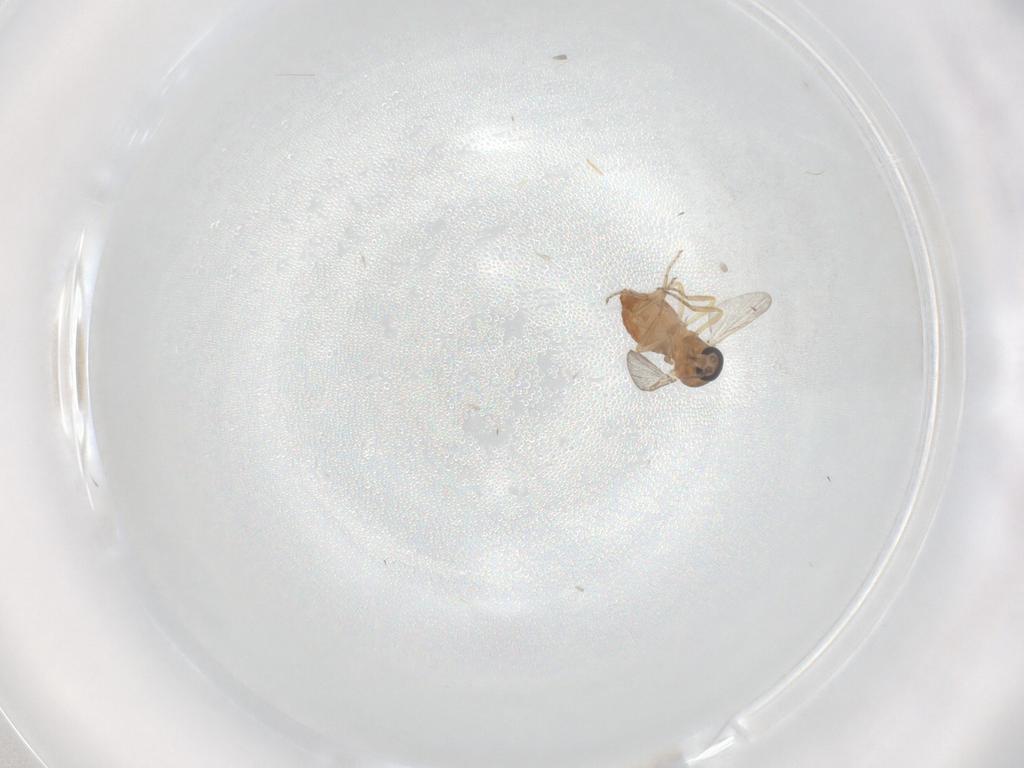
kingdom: Animalia
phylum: Arthropoda
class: Insecta
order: Diptera
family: Ceratopogonidae
